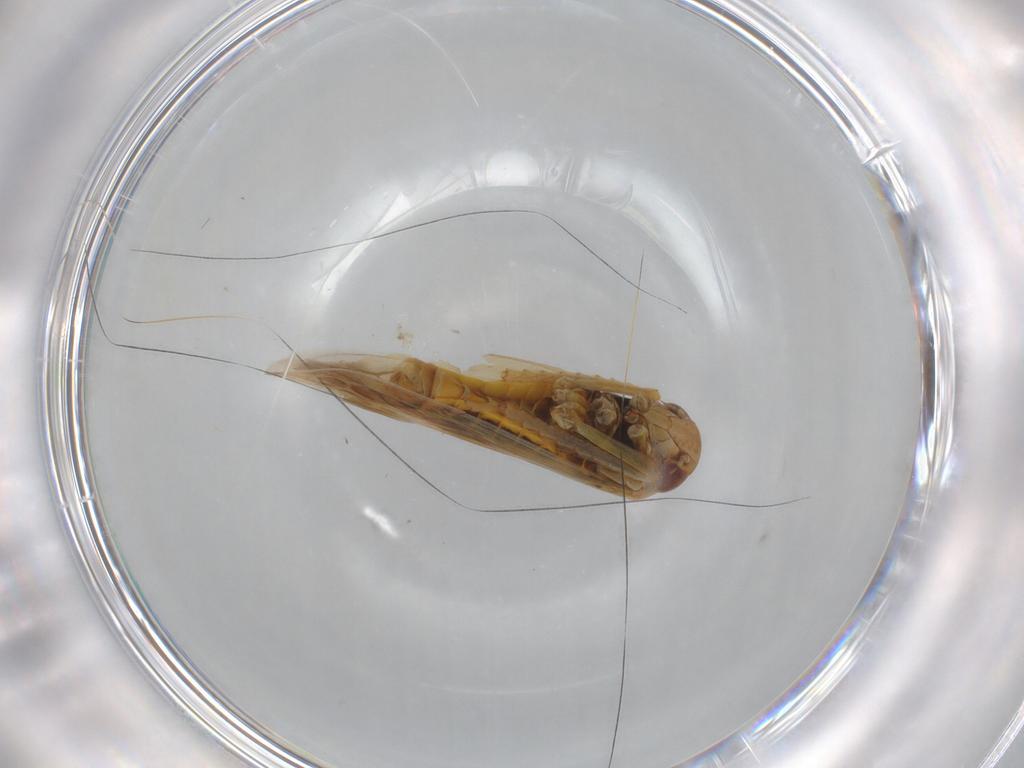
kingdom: Animalia
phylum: Arthropoda
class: Insecta
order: Hemiptera
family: Cicadellidae
